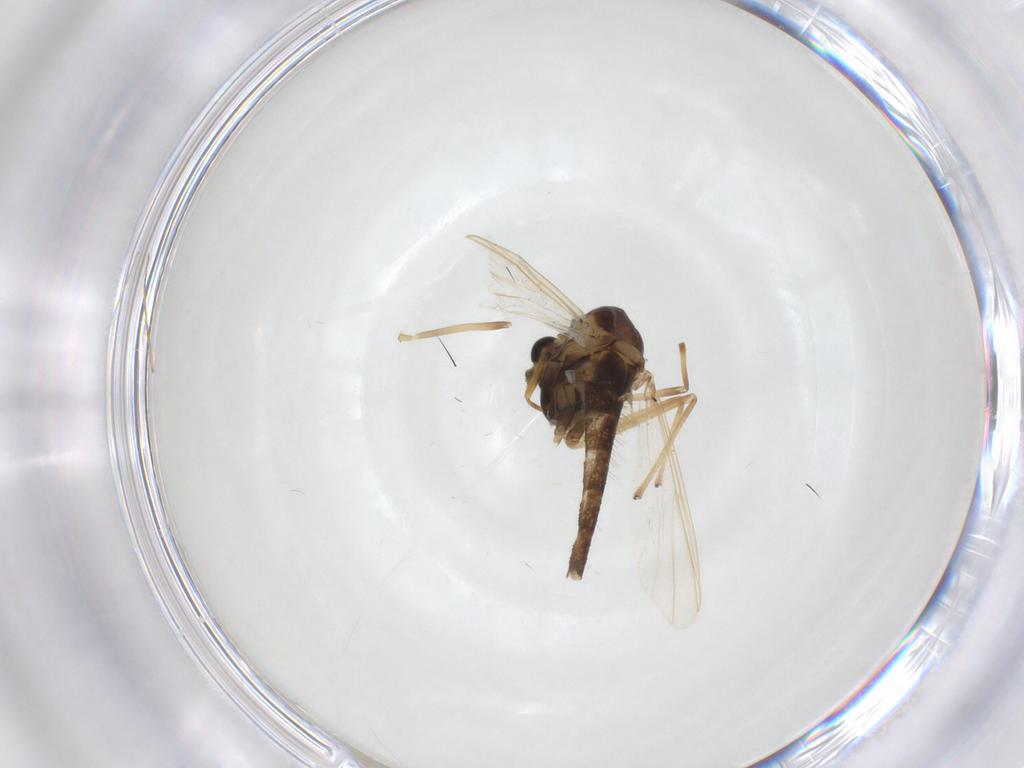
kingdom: Animalia
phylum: Arthropoda
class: Insecta
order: Diptera
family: Chironomidae
